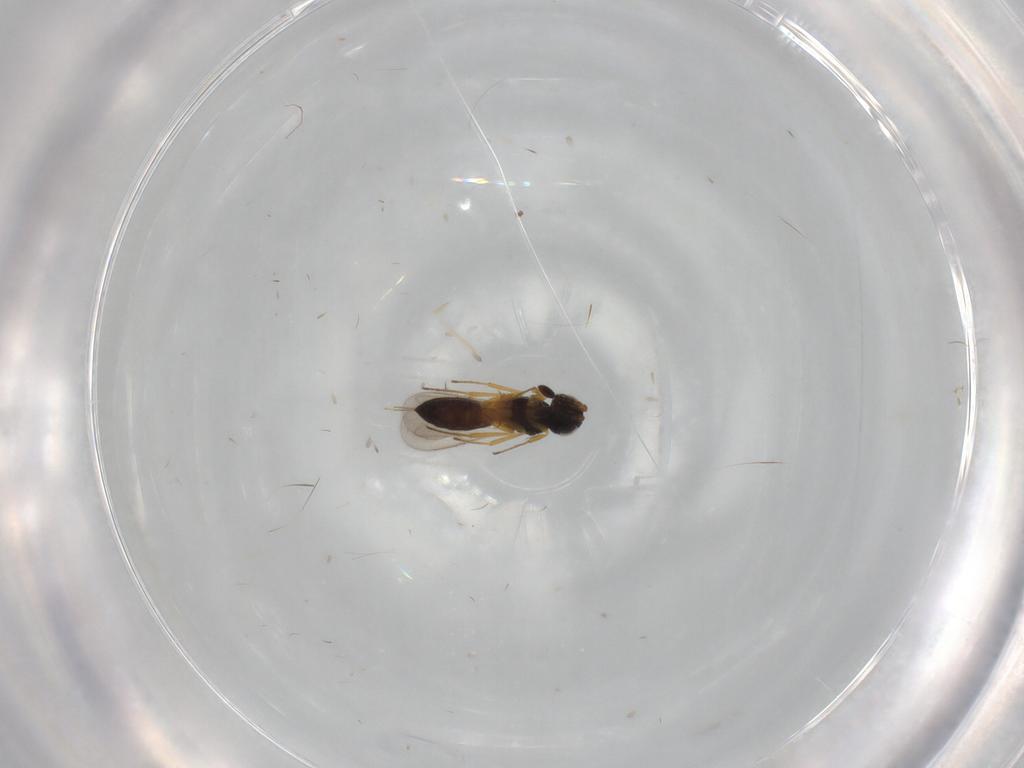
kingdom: Animalia
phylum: Arthropoda
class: Insecta
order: Hymenoptera
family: Scelionidae
